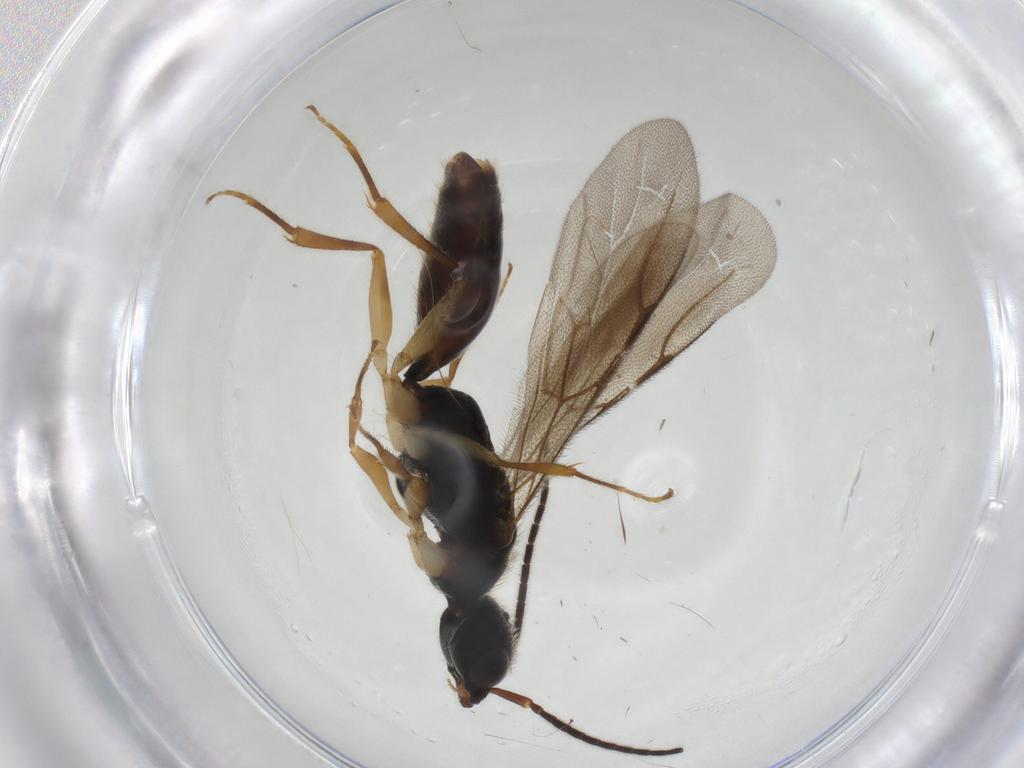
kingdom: Animalia
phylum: Arthropoda
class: Insecta
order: Hymenoptera
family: Bethylidae
